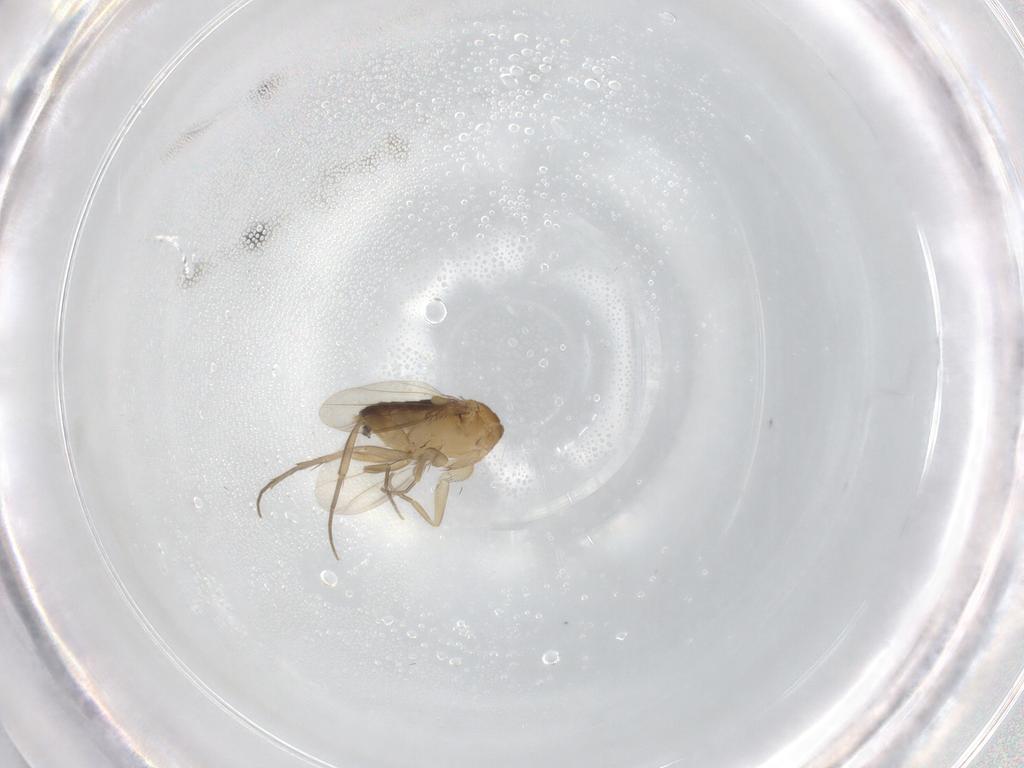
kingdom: Animalia
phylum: Arthropoda
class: Insecta
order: Diptera
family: Phoridae
